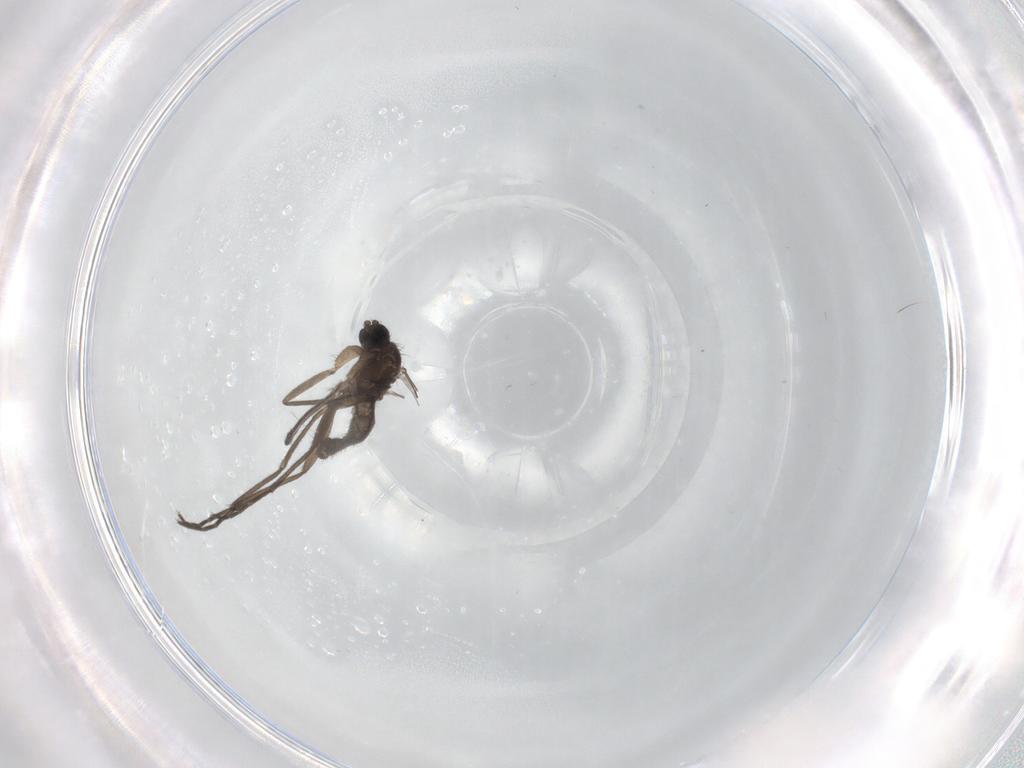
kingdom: Animalia
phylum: Arthropoda
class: Insecta
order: Diptera
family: Sciaridae
